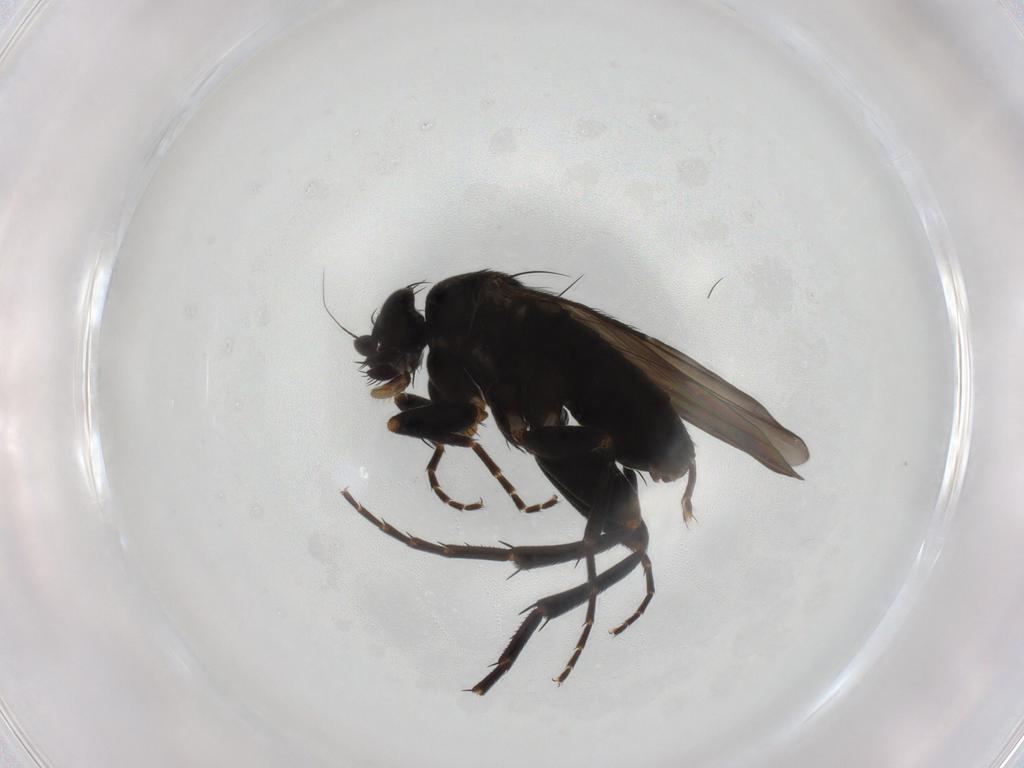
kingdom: Animalia
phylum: Arthropoda
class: Insecta
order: Diptera
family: Phoridae
